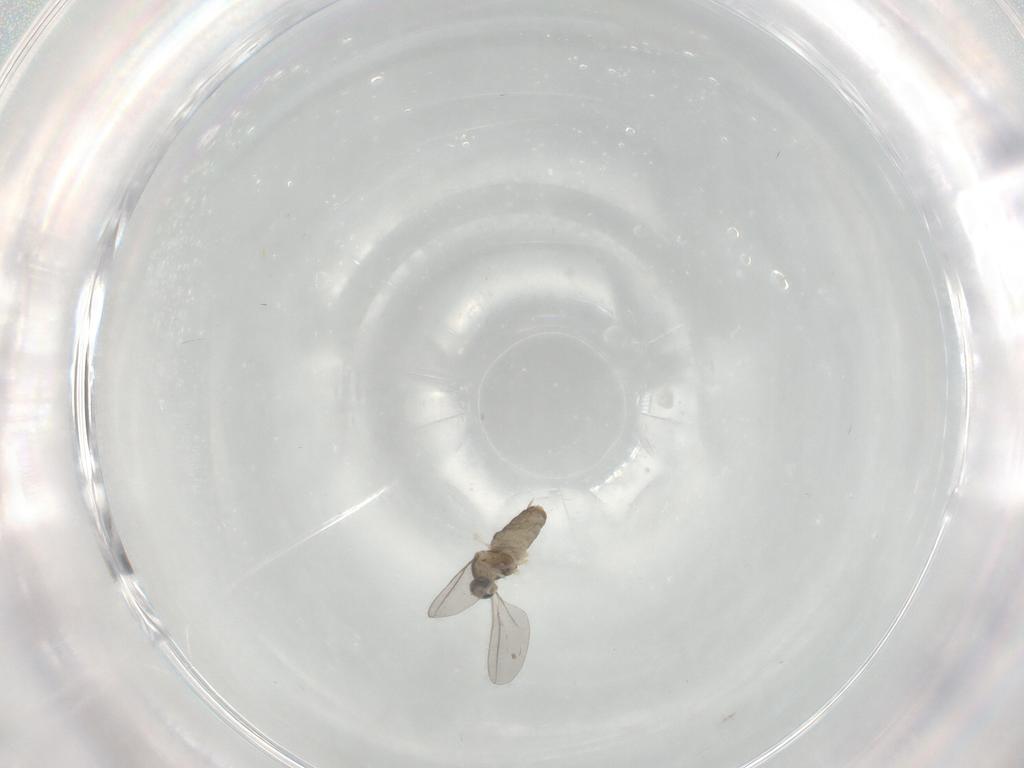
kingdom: Animalia
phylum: Arthropoda
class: Insecta
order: Diptera
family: Cecidomyiidae
